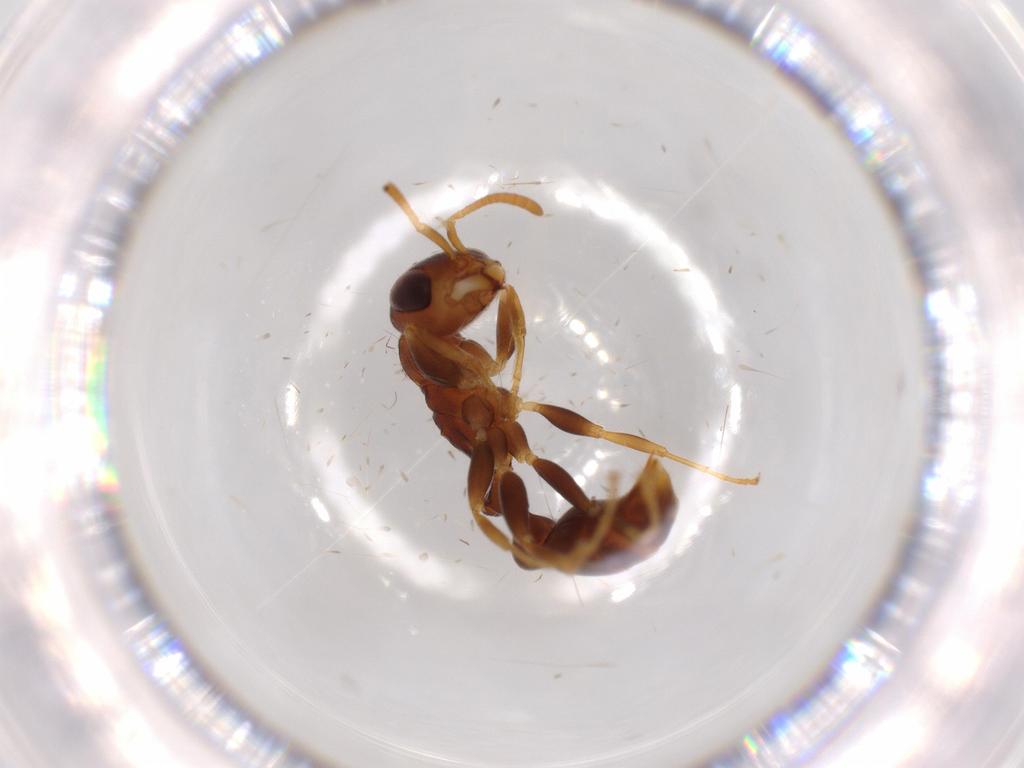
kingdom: Animalia
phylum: Arthropoda
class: Insecta
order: Hymenoptera
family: Formicidae
